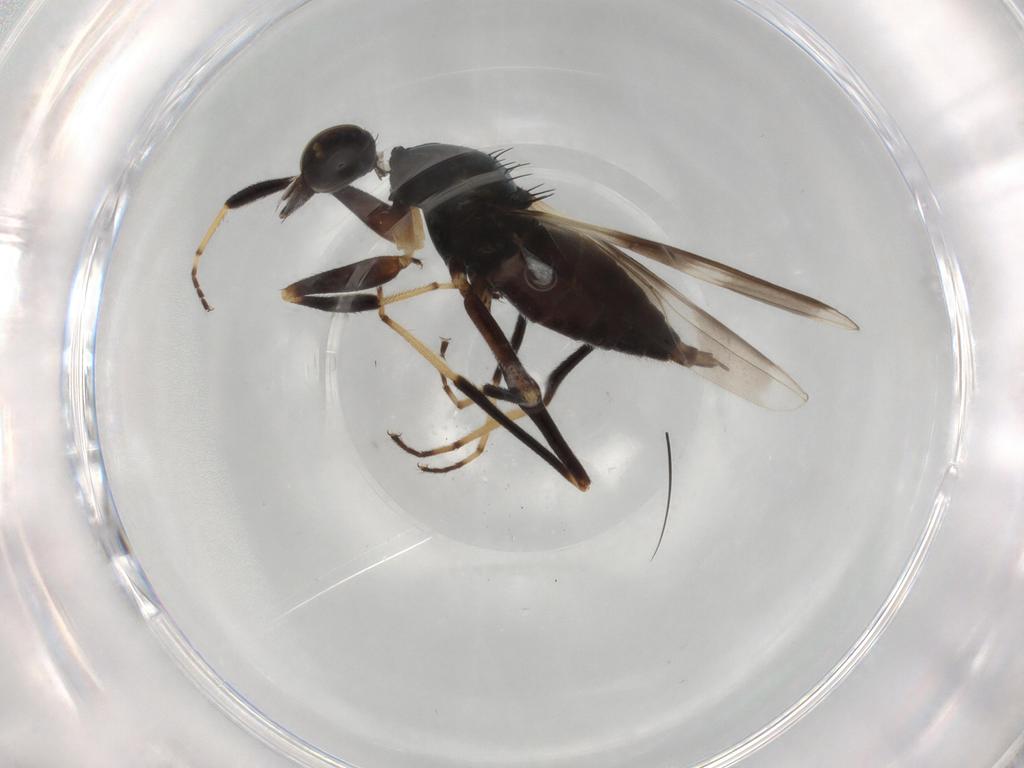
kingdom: Animalia
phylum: Arthropoda
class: Insecta
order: Diptera
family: Hybotidae
